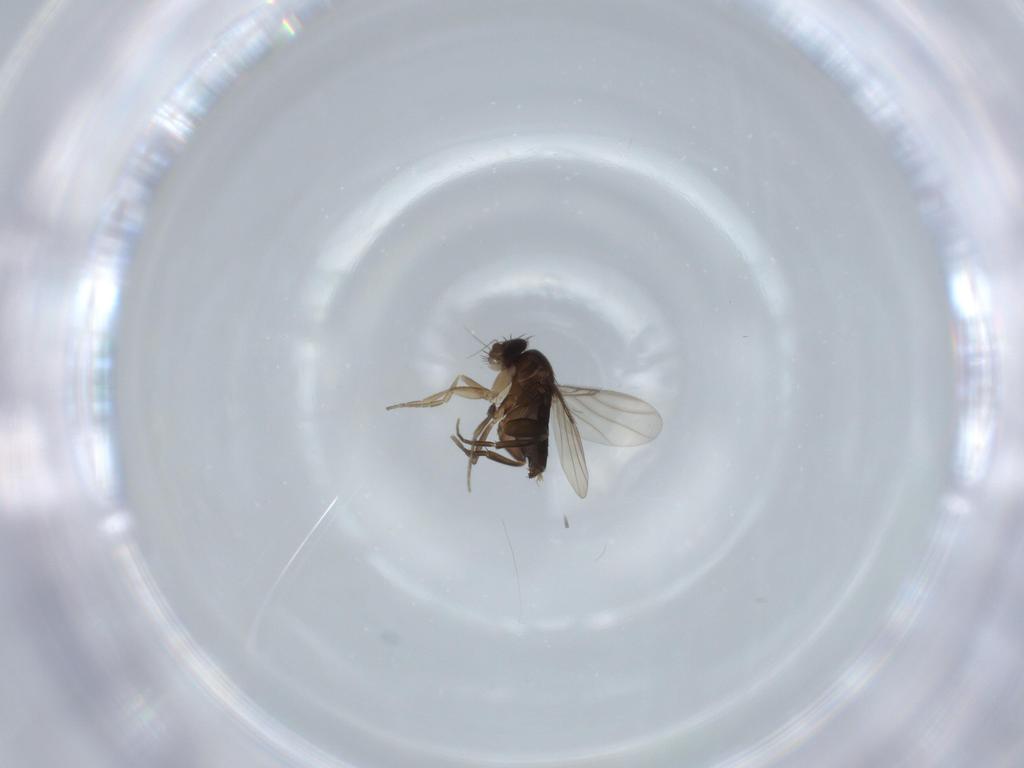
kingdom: Animalia
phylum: Arthropoda
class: Insecta
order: Diptera
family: Phoridae
